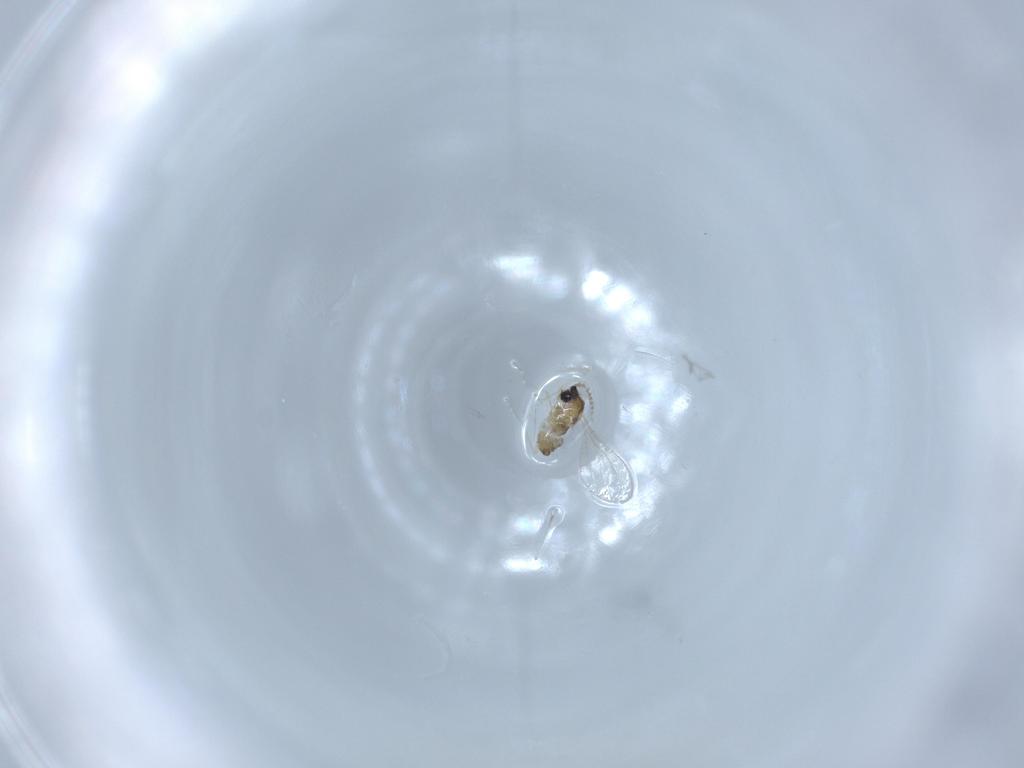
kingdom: Animalia
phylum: Arthropoda
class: Insecta
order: Diptera
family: Cecidomyiidae
